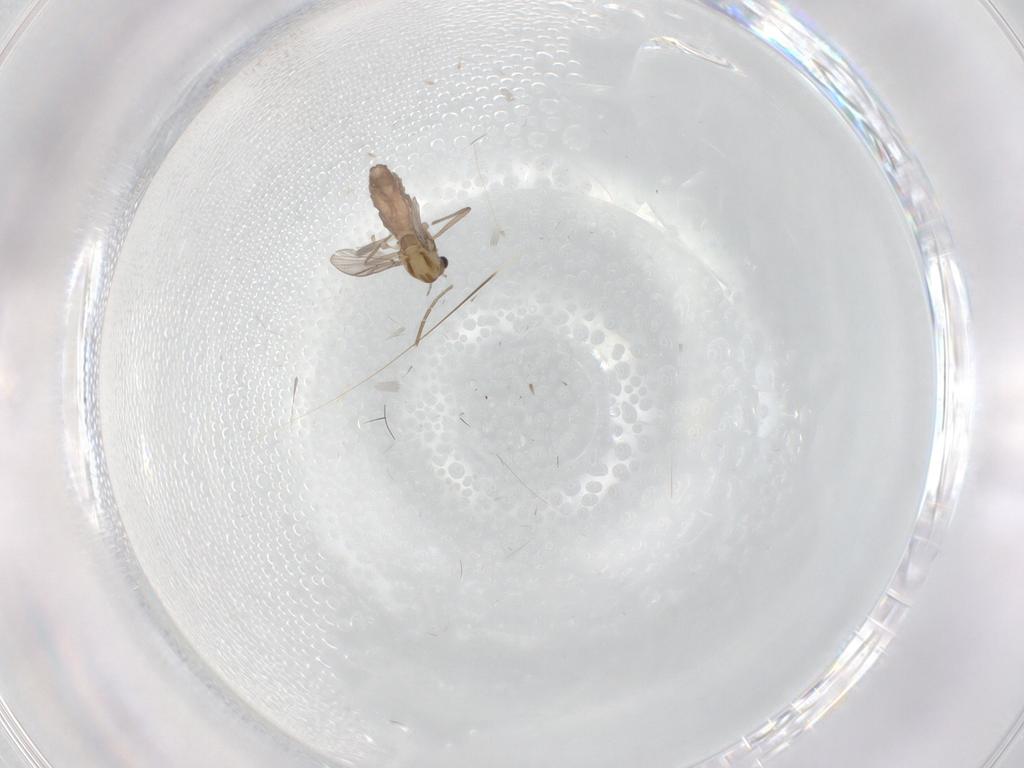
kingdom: Animalia
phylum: Arthropoda
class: Insecta
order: Diptera
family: Chironomidae
